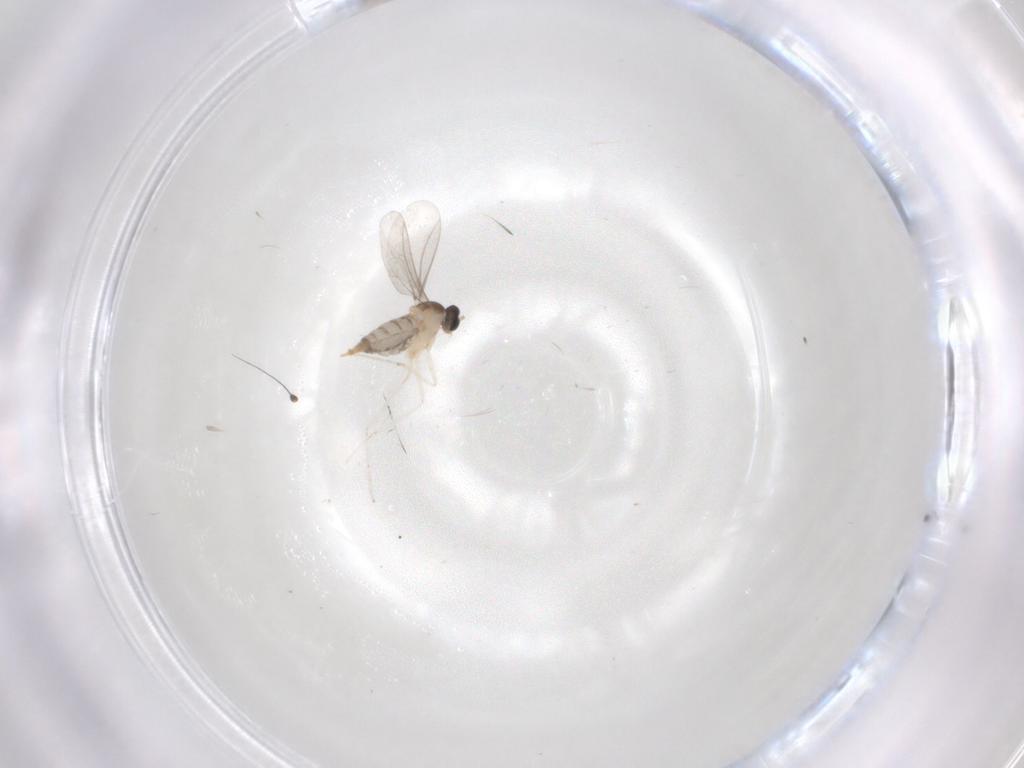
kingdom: Animalia
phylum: Arthropoda
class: Insecta
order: Diptera
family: Cecidomyiidae
